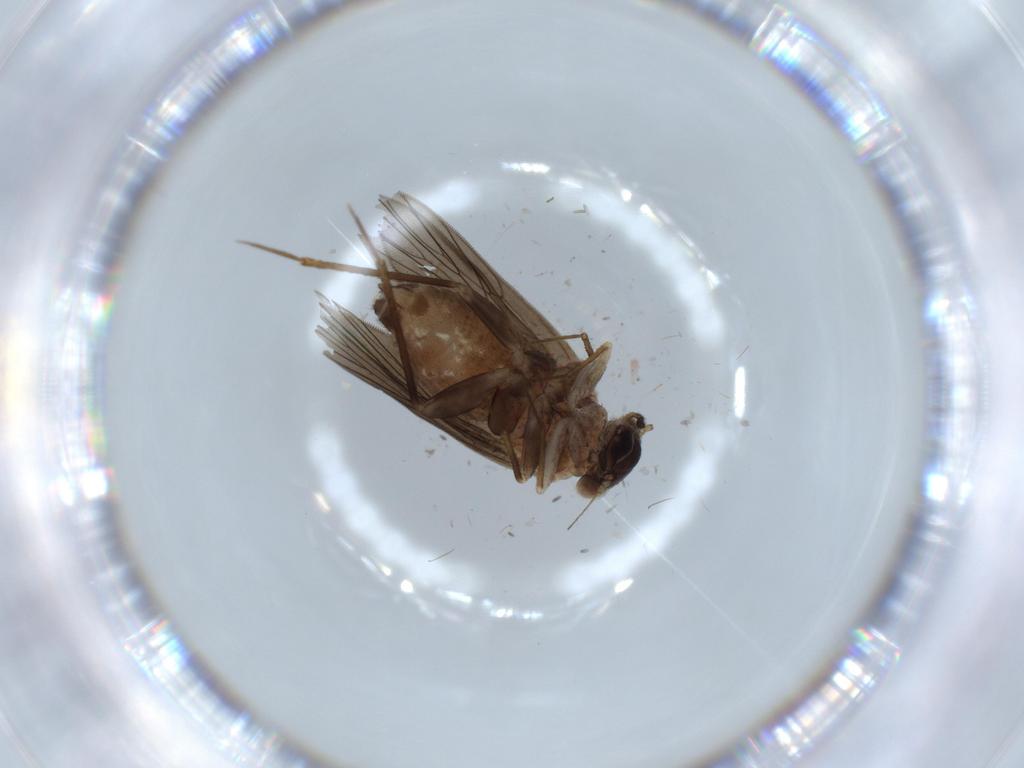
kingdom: Animalia
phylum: Arthropoda
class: Insecta
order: Psocodea
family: Lepidopsocidae
